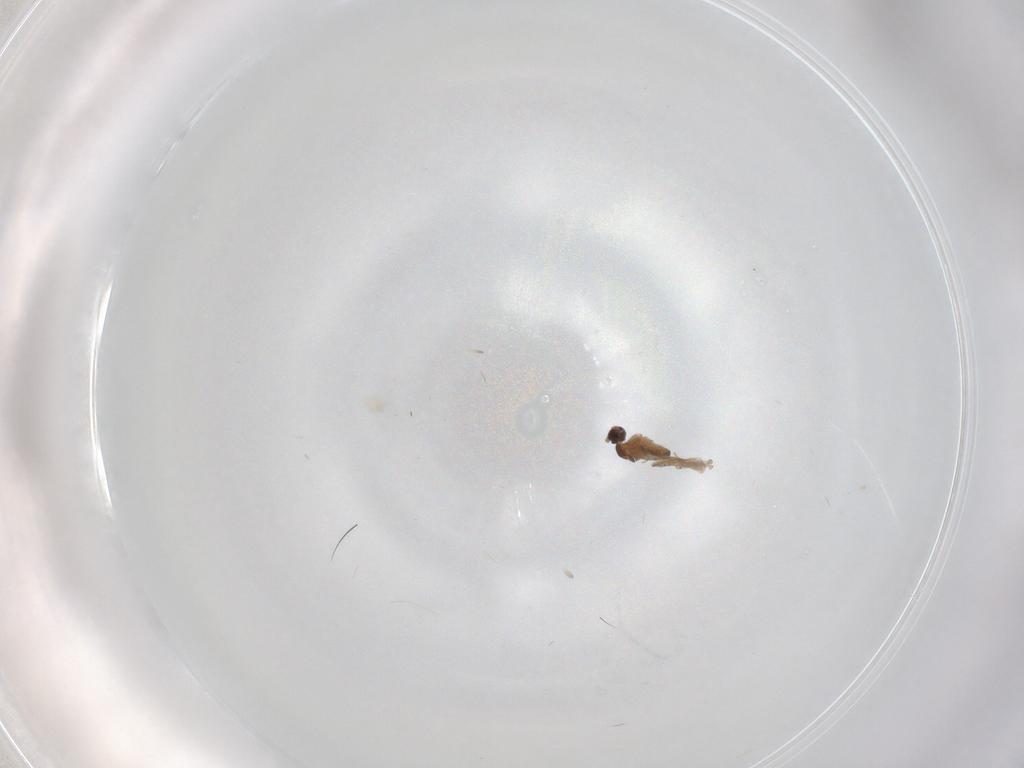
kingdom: Animalia
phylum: Arthropoda
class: Insecta
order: Diptera
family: Cecidomyiidae
